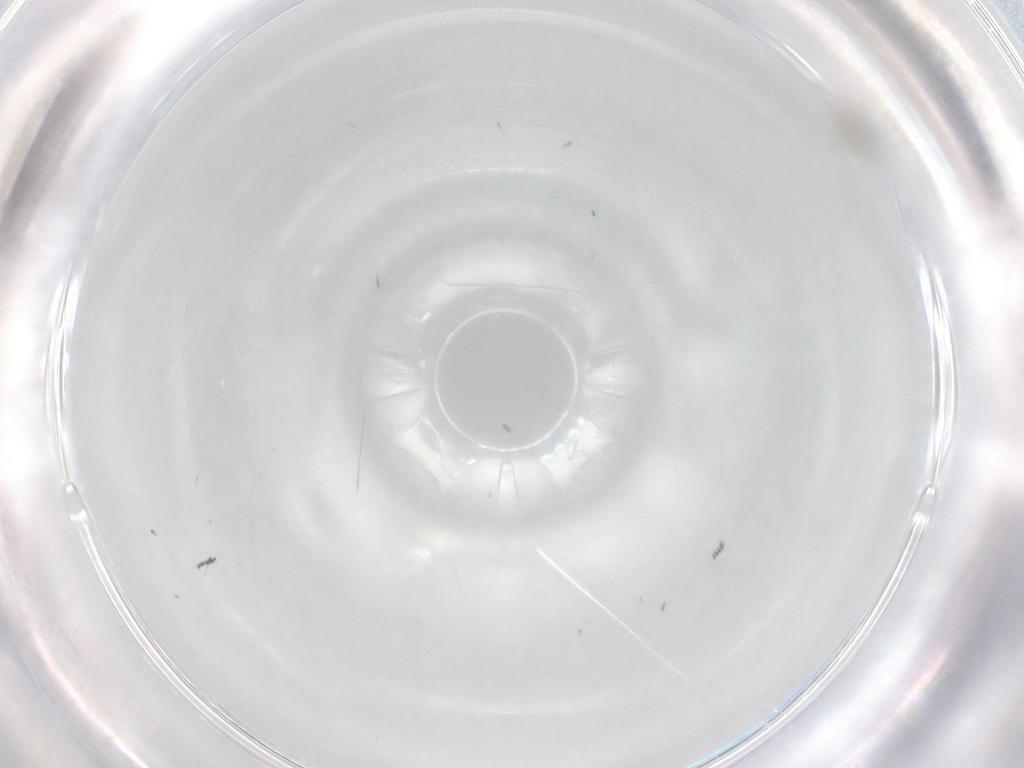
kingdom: Animalia
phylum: Arthropoda
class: Insecta
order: Diptera
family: Cecidomyiidae
